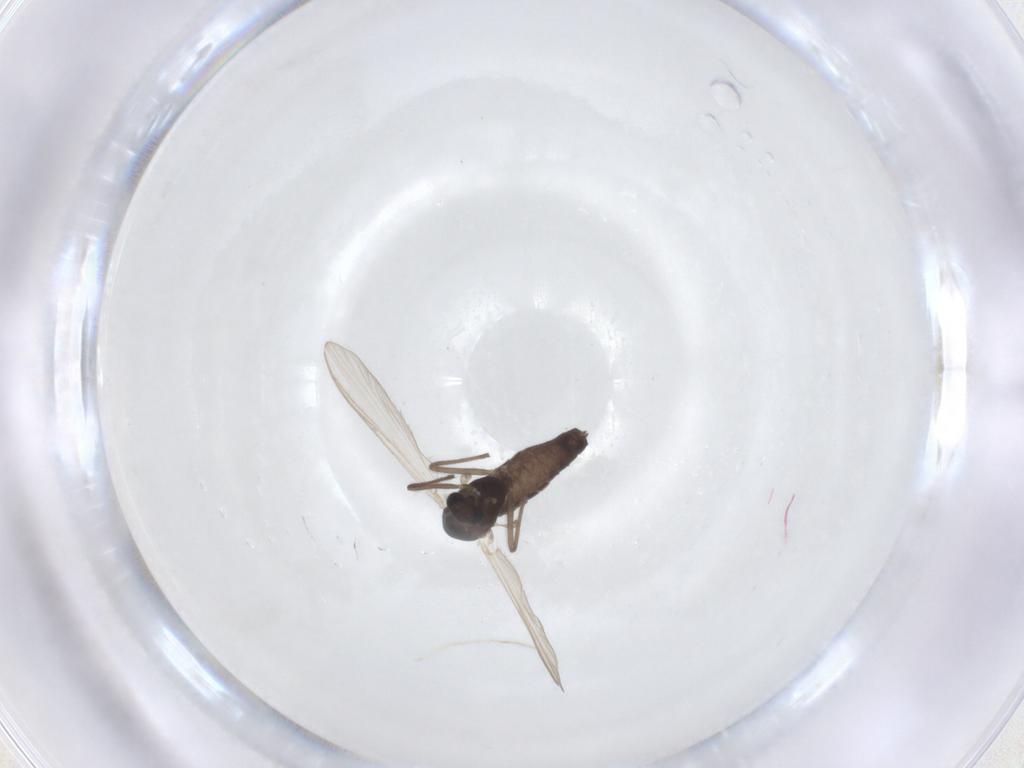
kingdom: Animalia
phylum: Arthropoda
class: Insecta
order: Diptera
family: Chironomidae
